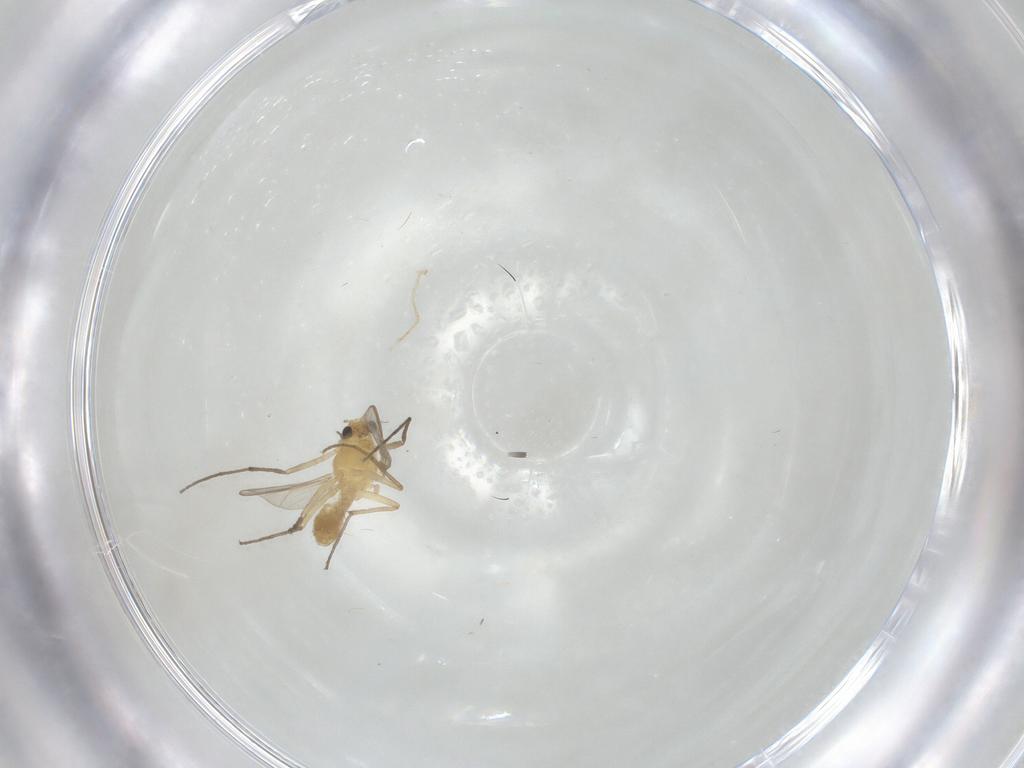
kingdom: Animalia
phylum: Arthropoda
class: Insecta
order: Diptera
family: Chironomidae
